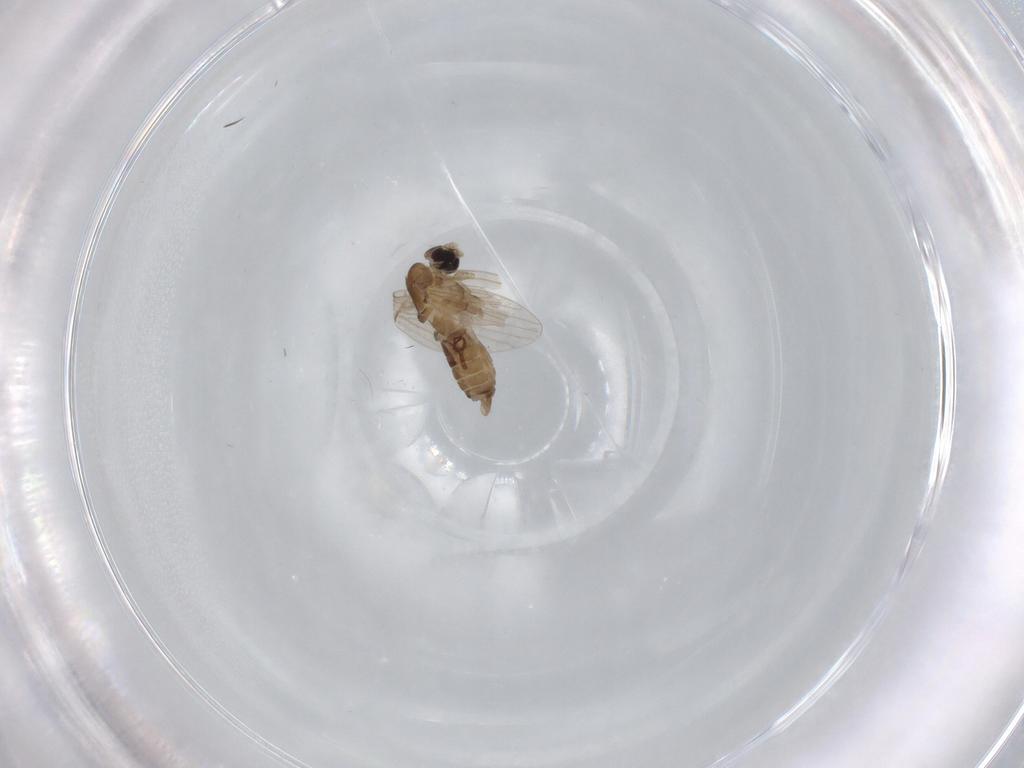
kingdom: Animalia
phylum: Arthropoda
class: Insecta
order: Diptera
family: Psychodidae
